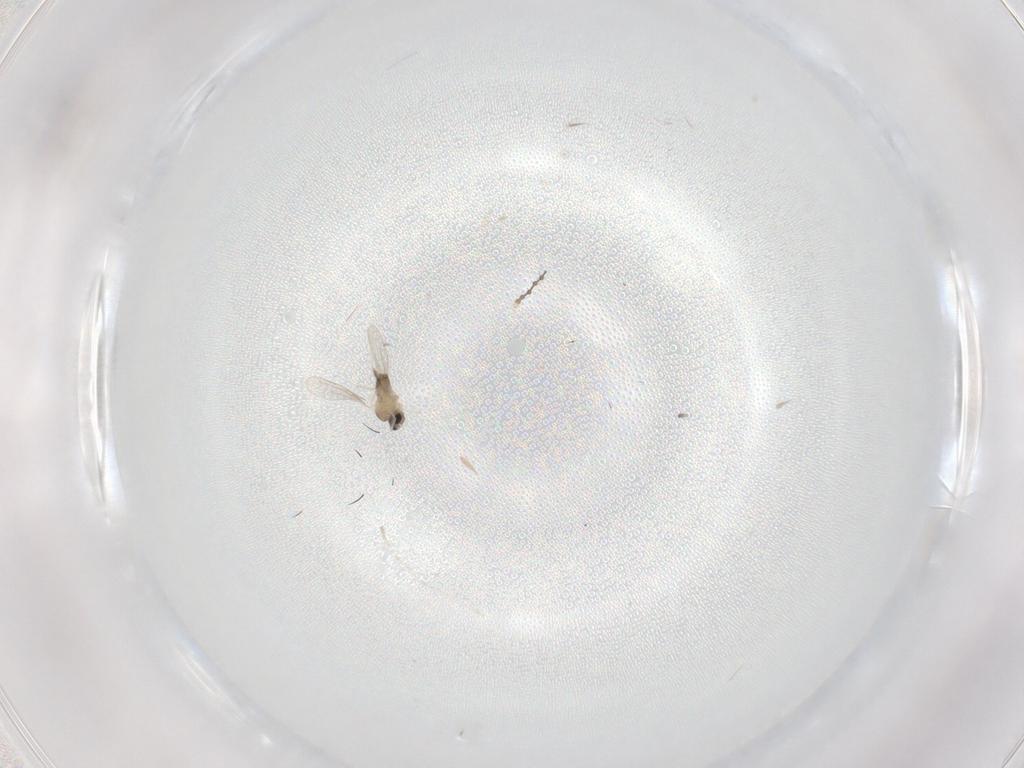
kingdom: Animalia
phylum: Arthropoda
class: Insecta
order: Diptera
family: Cecidomyiidae
